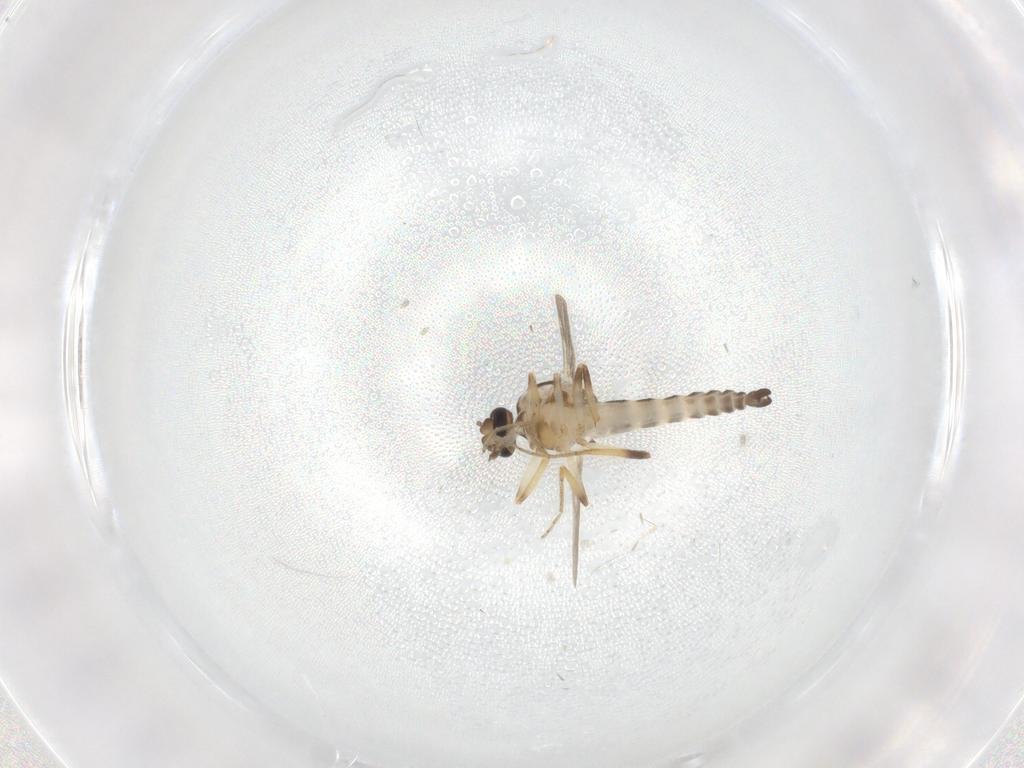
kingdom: Animalia
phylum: Arthropoda
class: Insecta
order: Diptera
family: Ceratopogonidae
